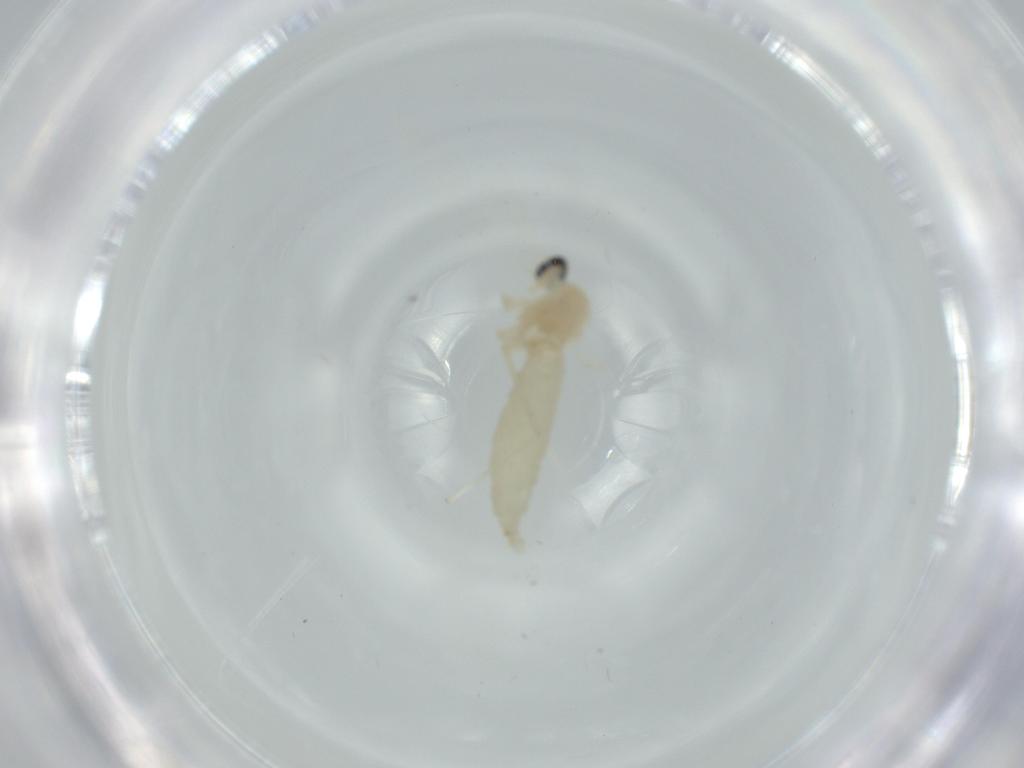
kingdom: Animalia
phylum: Arthropoda
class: Insecta
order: Diptera
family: Cecidomyiidae
